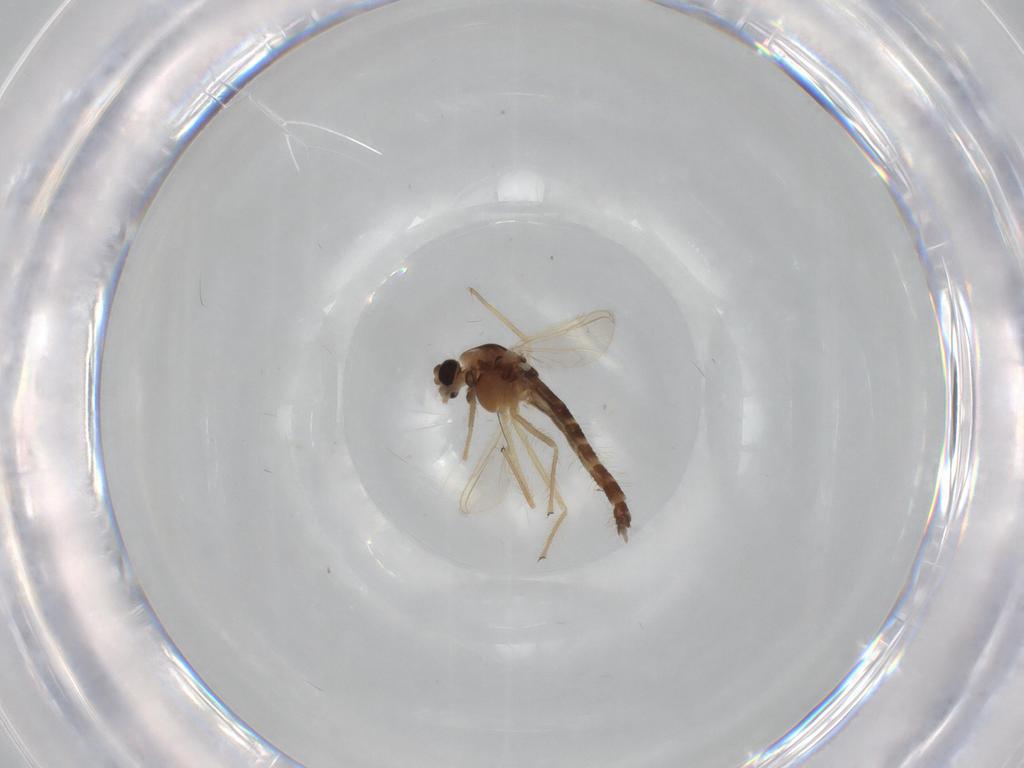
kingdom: Animalia
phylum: Arthropoda
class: Insecta
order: Diptera
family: Chironomidae
